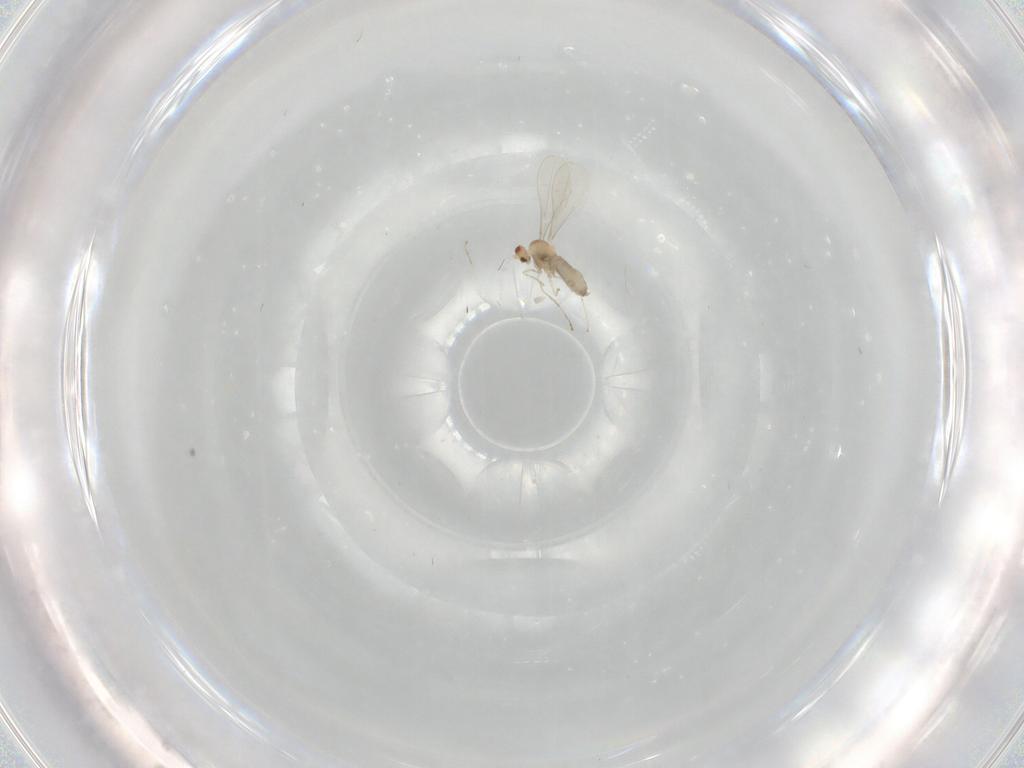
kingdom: Animalia
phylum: Arthropoda
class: Insecta
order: Diptera
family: Cecidomyiidae
